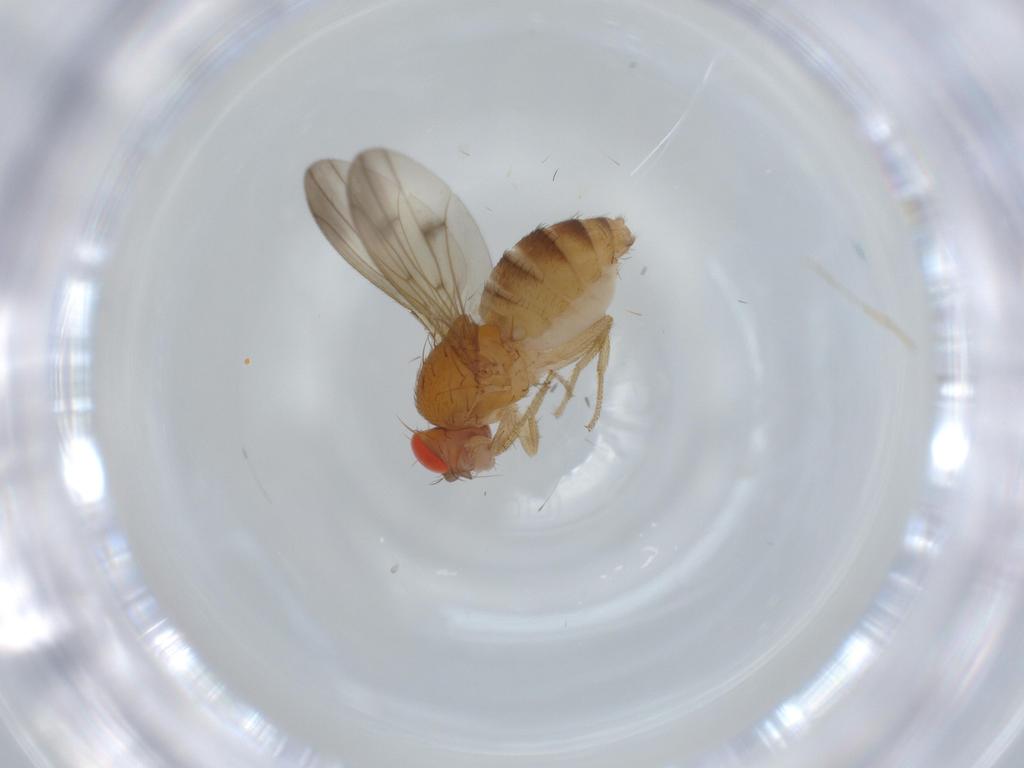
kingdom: Animalia
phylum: Arthropoda
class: Insecta
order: Diptera
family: Drosophilidae
